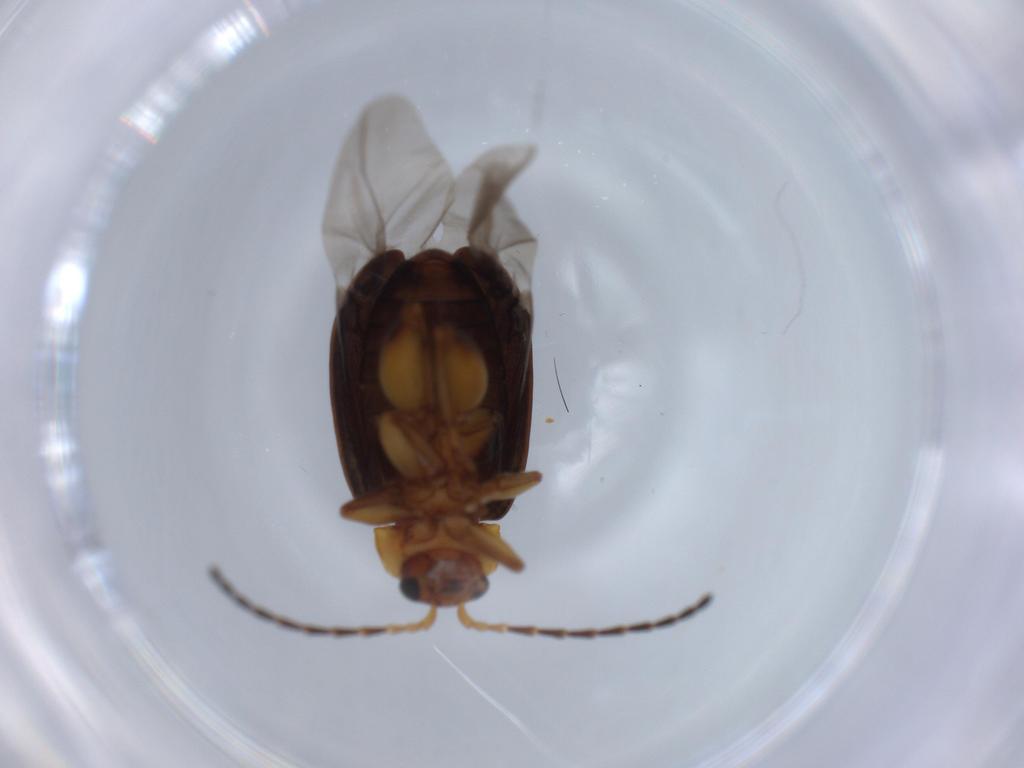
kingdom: Animalia
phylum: Arthropoda
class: Insecta
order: Coleoptera
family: Chrysomelidae
